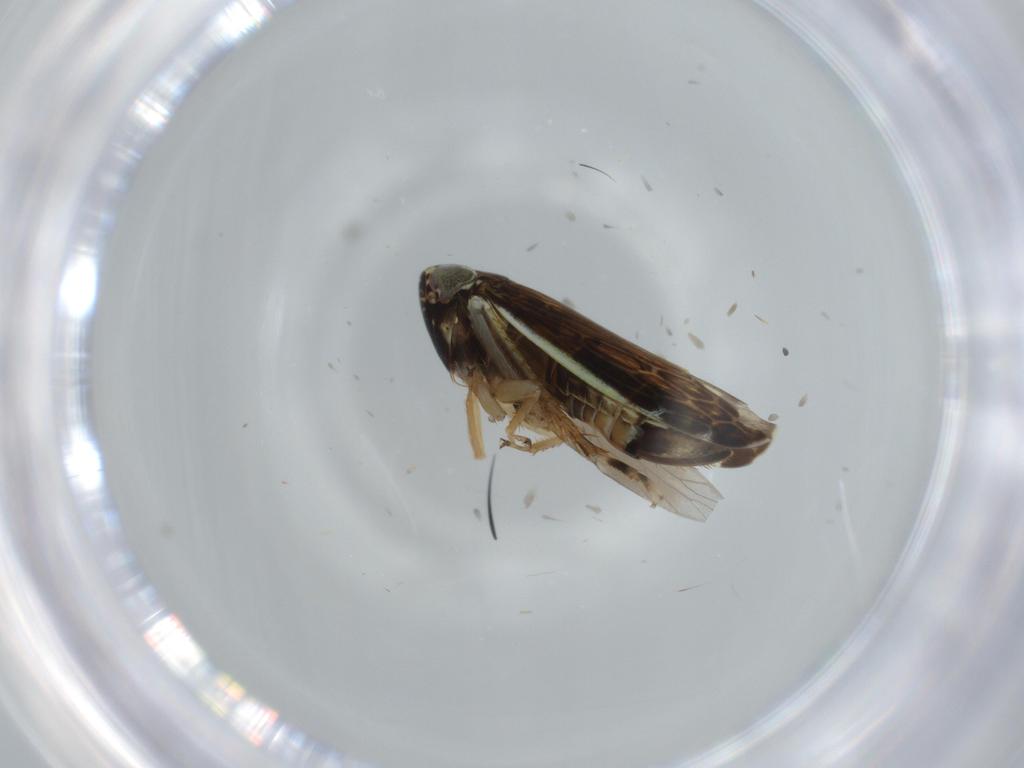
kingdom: Animalia
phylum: Arthropoda
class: Insecta
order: Hemiptera
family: Cicadellidae
